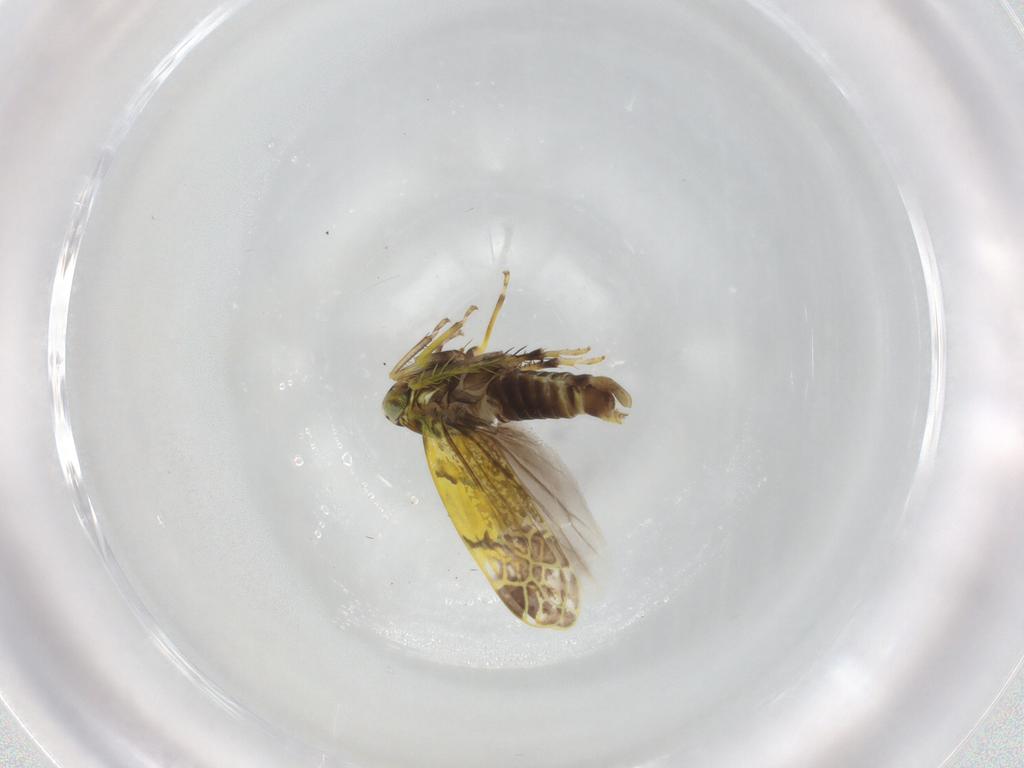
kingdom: Animalia
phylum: Arthropoda
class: Insecta
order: Hemiptera
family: Cicadellidae
